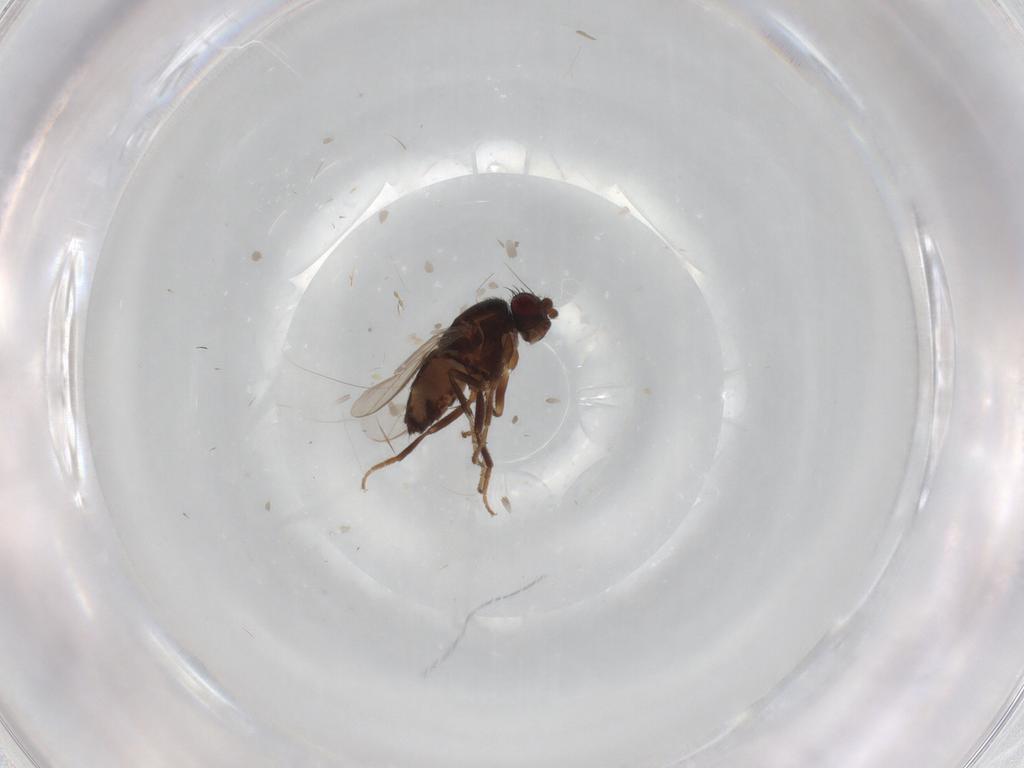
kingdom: Animalia
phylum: Arthropoda
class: Insecta
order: Diptera
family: Sphaeroceridae
